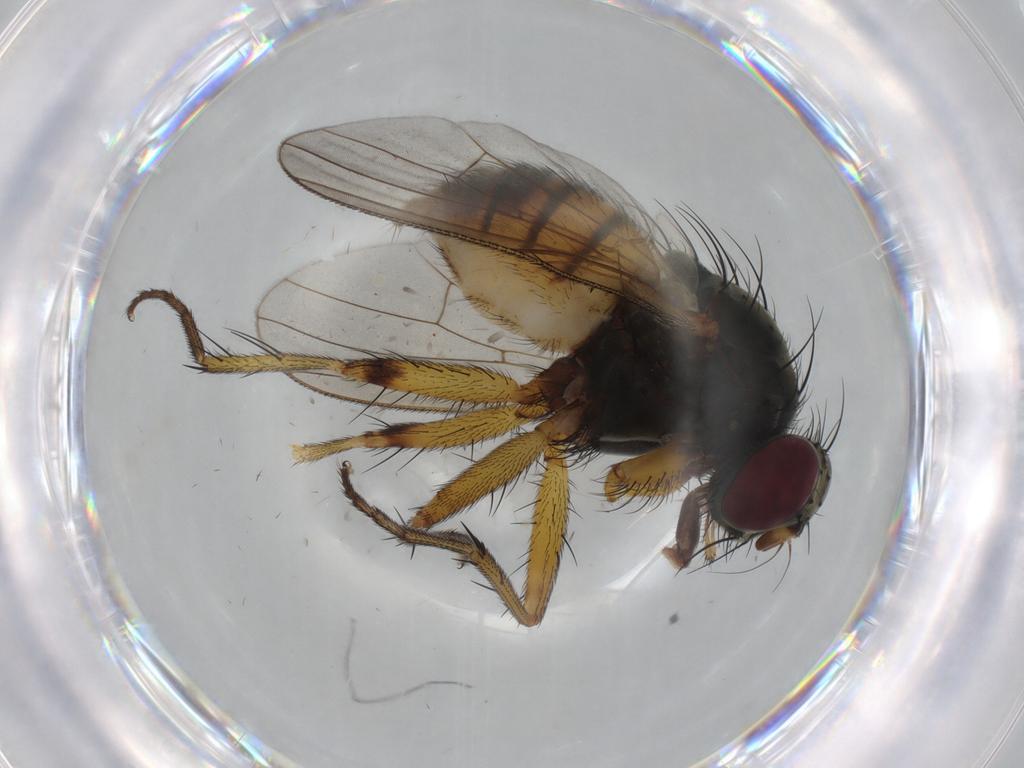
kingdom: Animalia
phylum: Arthropoda
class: Insecta
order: Diptera
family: Muscidae
